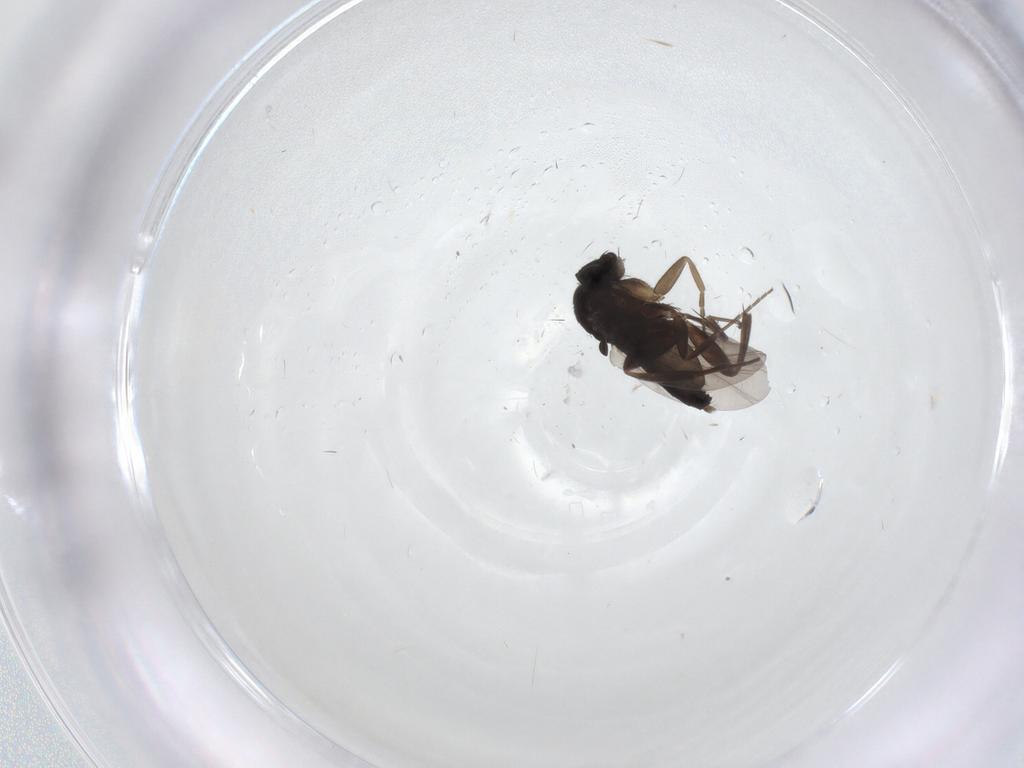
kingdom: Animalia
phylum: Arthropoda
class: Insecta
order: Diptera
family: Phoridae
